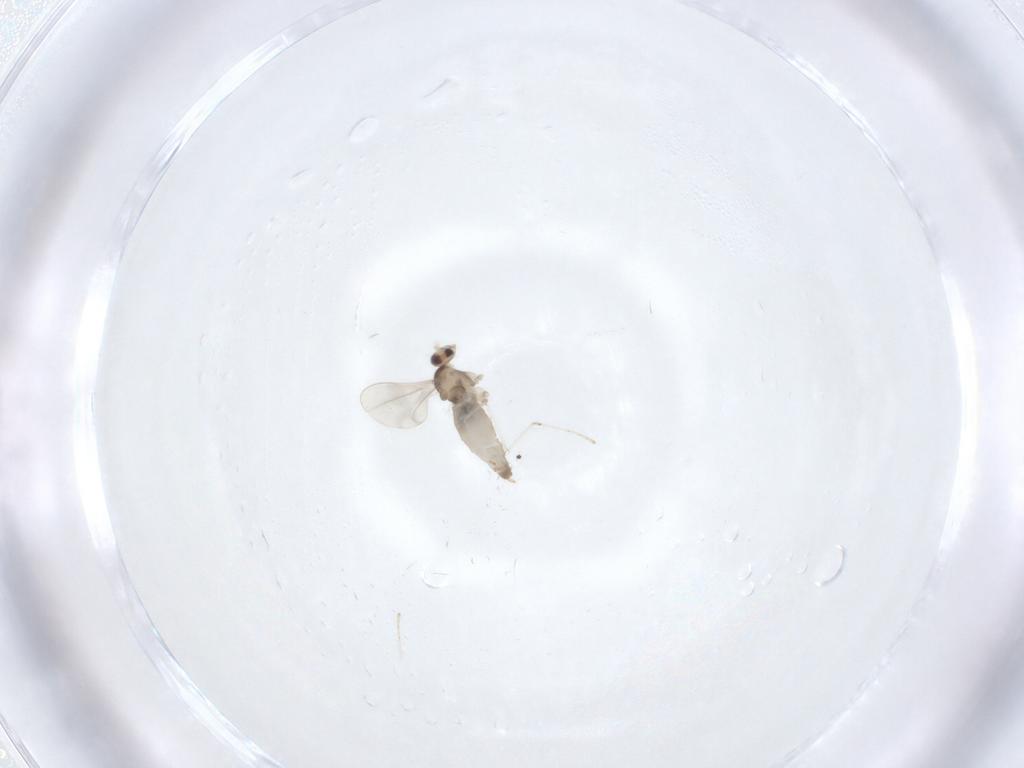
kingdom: Animalia
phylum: Arthropoda
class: Insecta
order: Diptera
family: Cecidomyiidae
